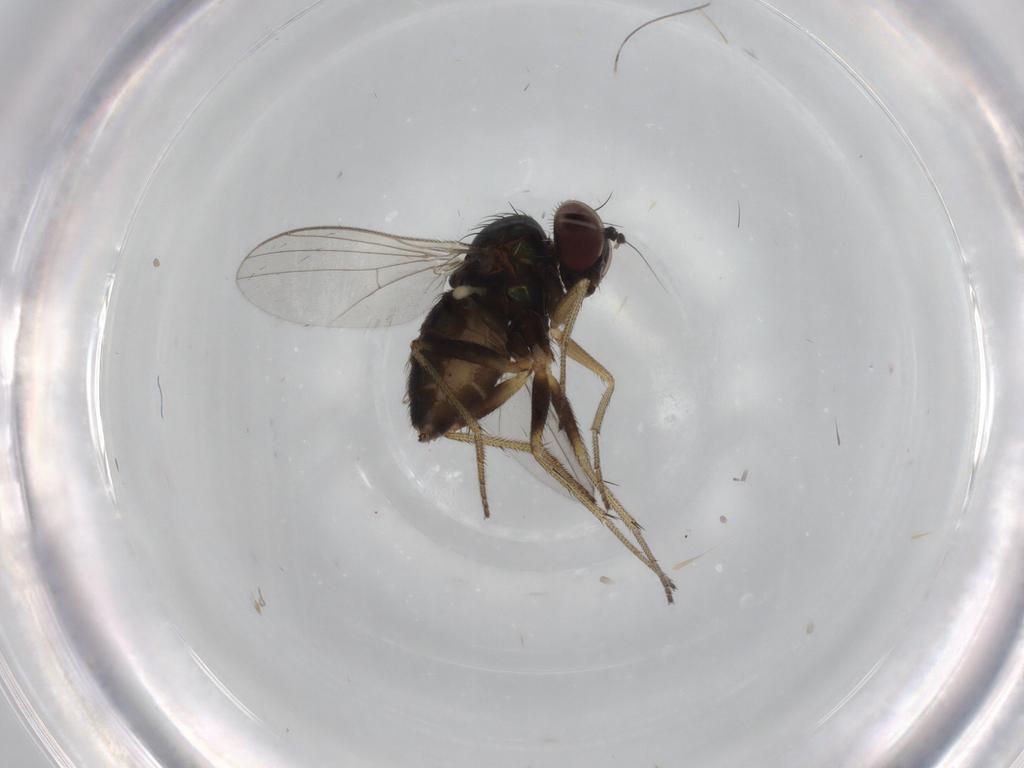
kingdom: Animalia
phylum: Arthropoda
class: Insecta
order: Diptera
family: Dolichopodidae
